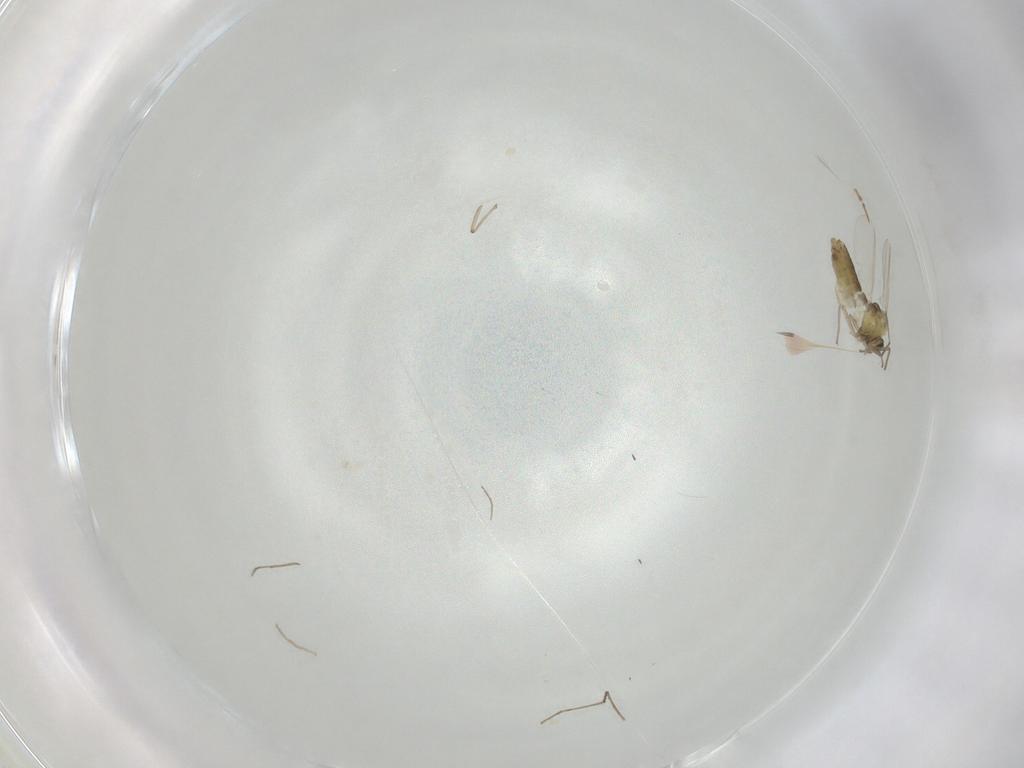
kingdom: Animalia
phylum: Arthropoda
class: Insecta
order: Diptera
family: Chironomidae
